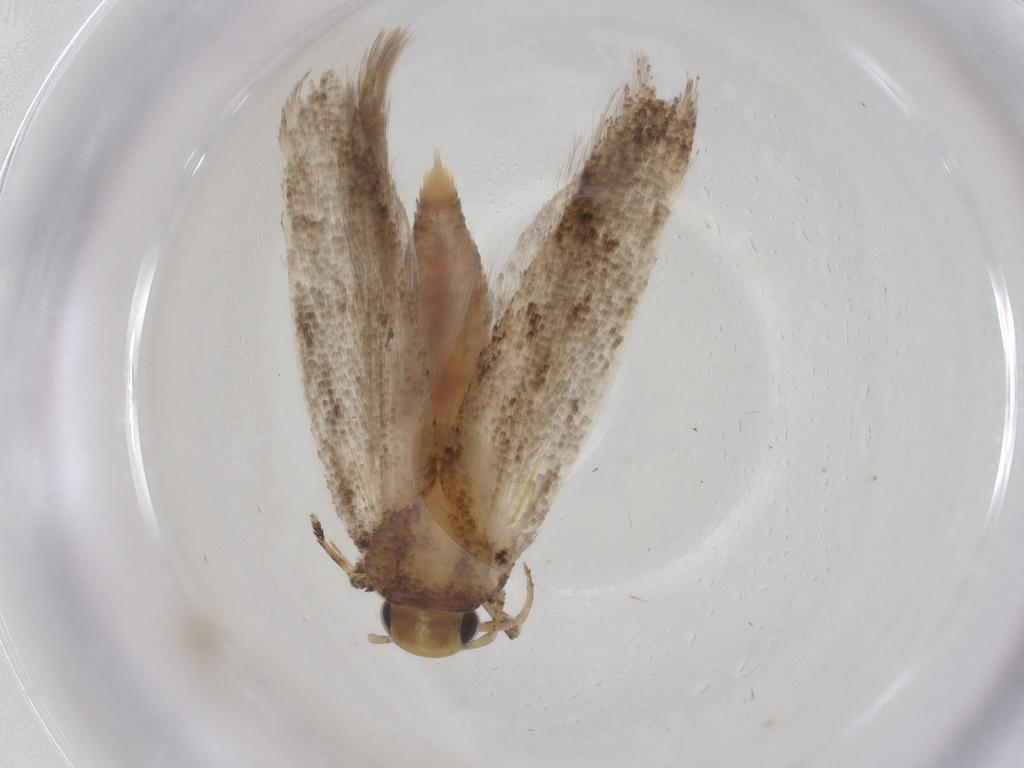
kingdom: Animalia
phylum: Arthropoda
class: Insecta
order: Lepidoptera
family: Gelechiidae
